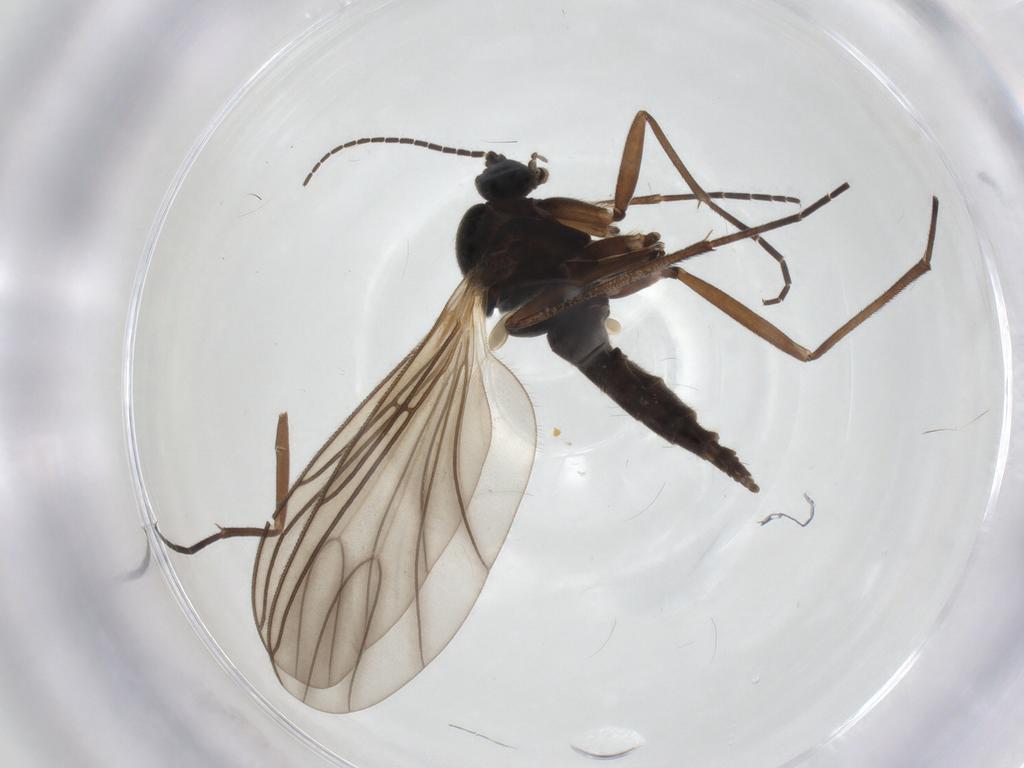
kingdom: Animalia
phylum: Arthropoda
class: Insecta
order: Diptera
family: Sciaridae
